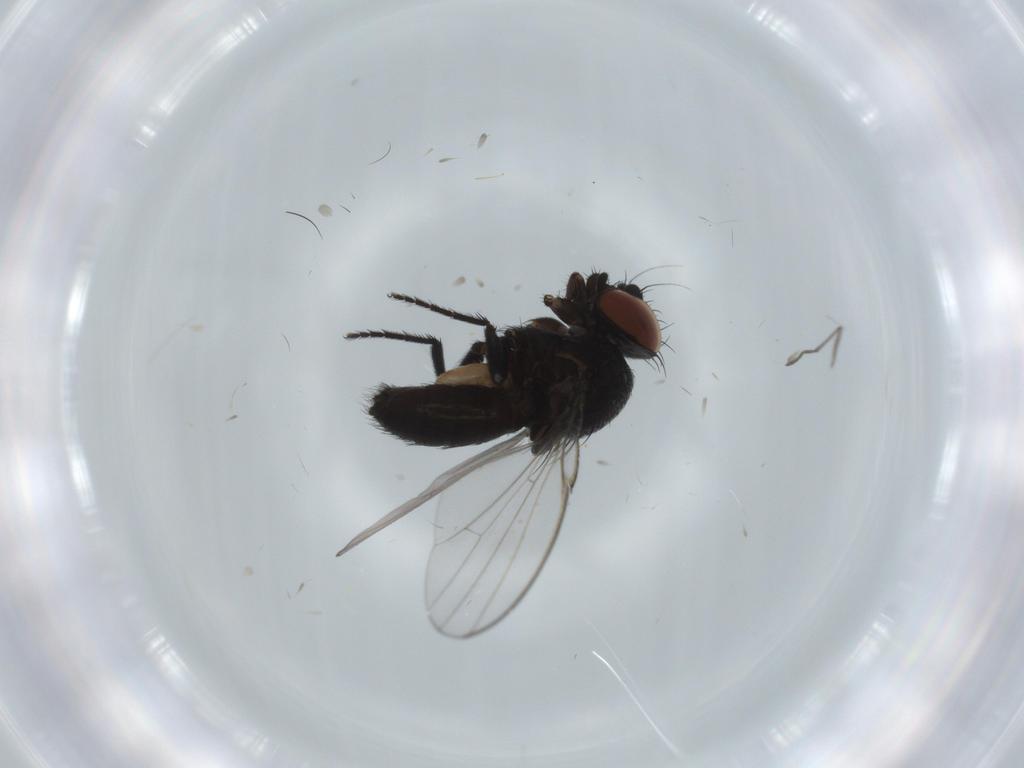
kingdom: Animalia
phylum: Arthropoda
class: Insecta
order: Diptera
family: Milichiidae
